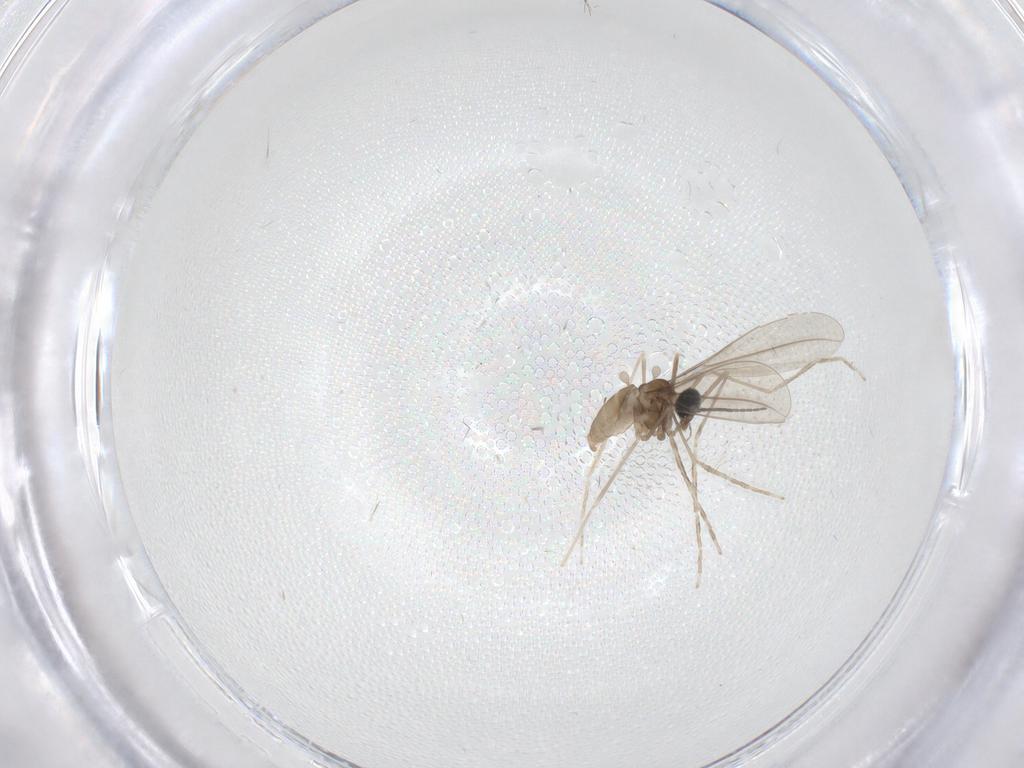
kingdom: Animalia
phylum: Arthropoda
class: Insecta
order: Diptera
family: Cecidomyiidae
